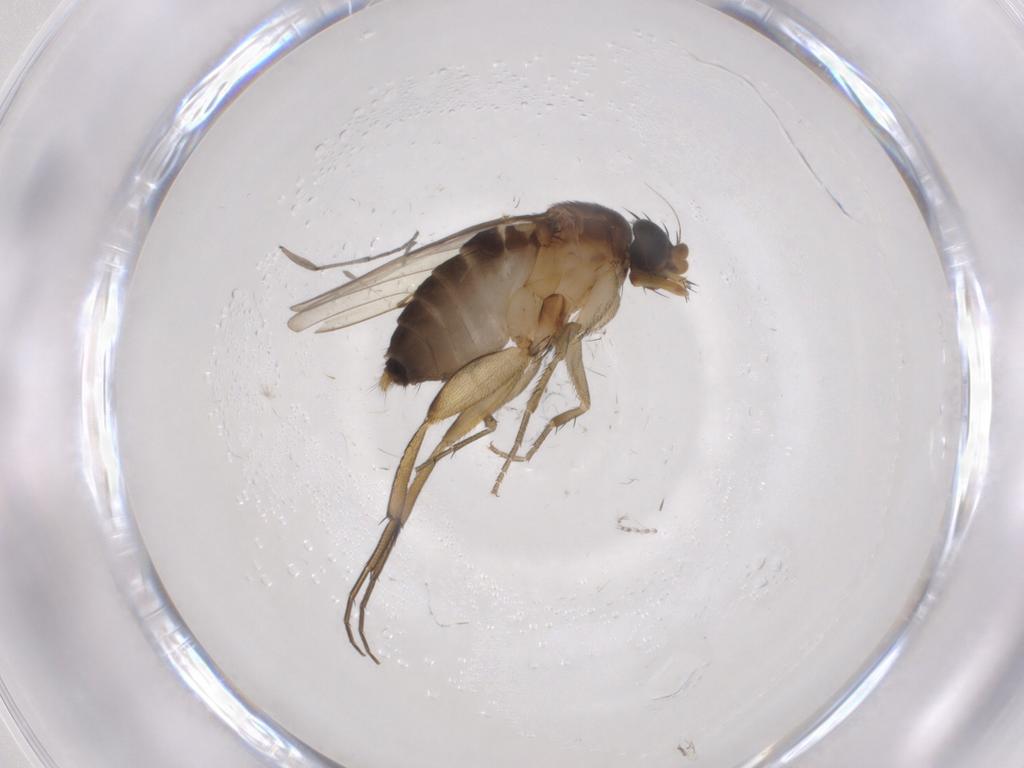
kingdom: Animalia
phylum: Arthropoda
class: Insecta
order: Diptera
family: Phoridae
